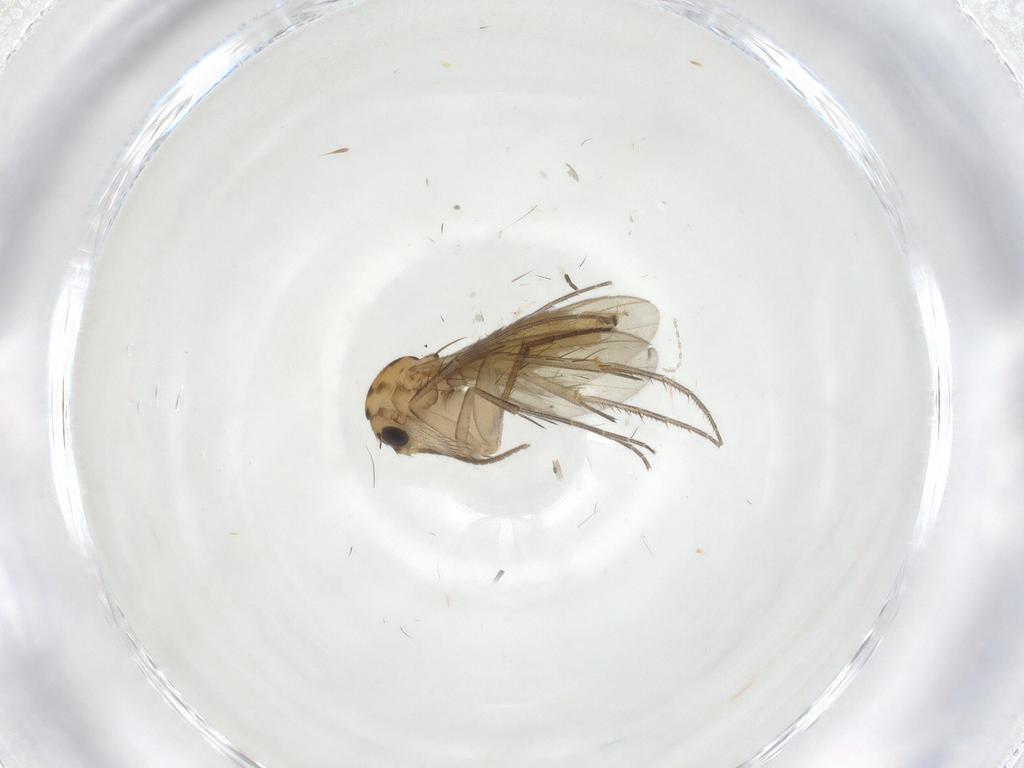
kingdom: Animalia
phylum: Arthropoda
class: Insecta
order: Diptera
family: Mycetophilidae
